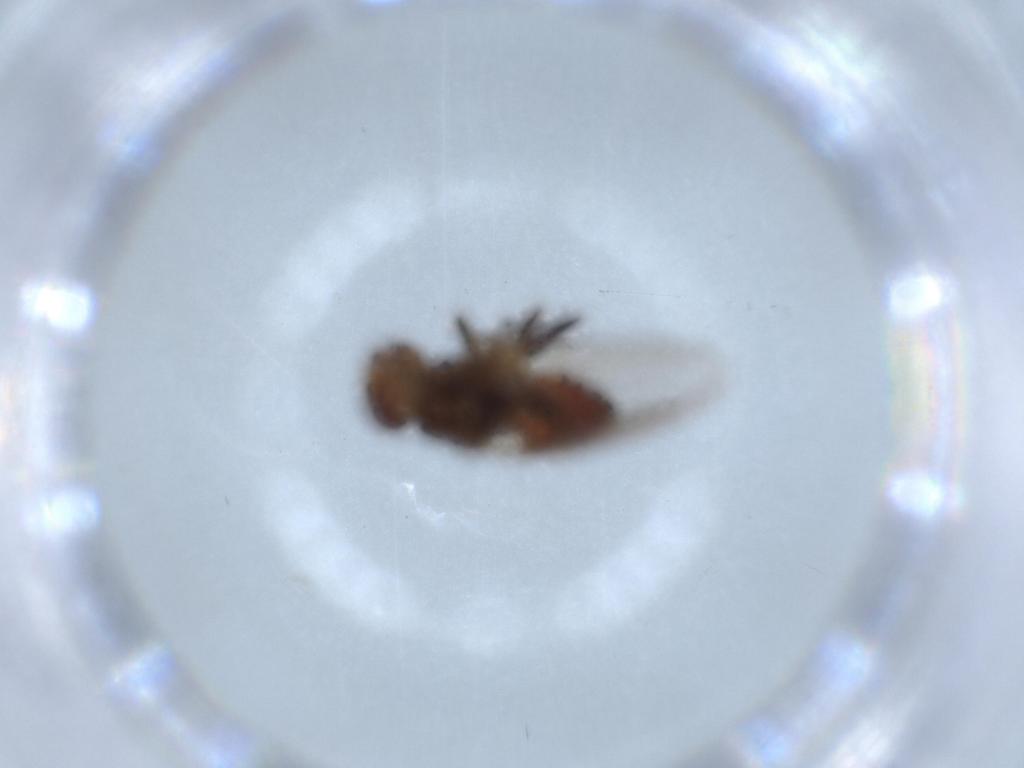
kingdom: Animalia
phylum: Arthropoda
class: Insecta
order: Diptera
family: Chloropidae
